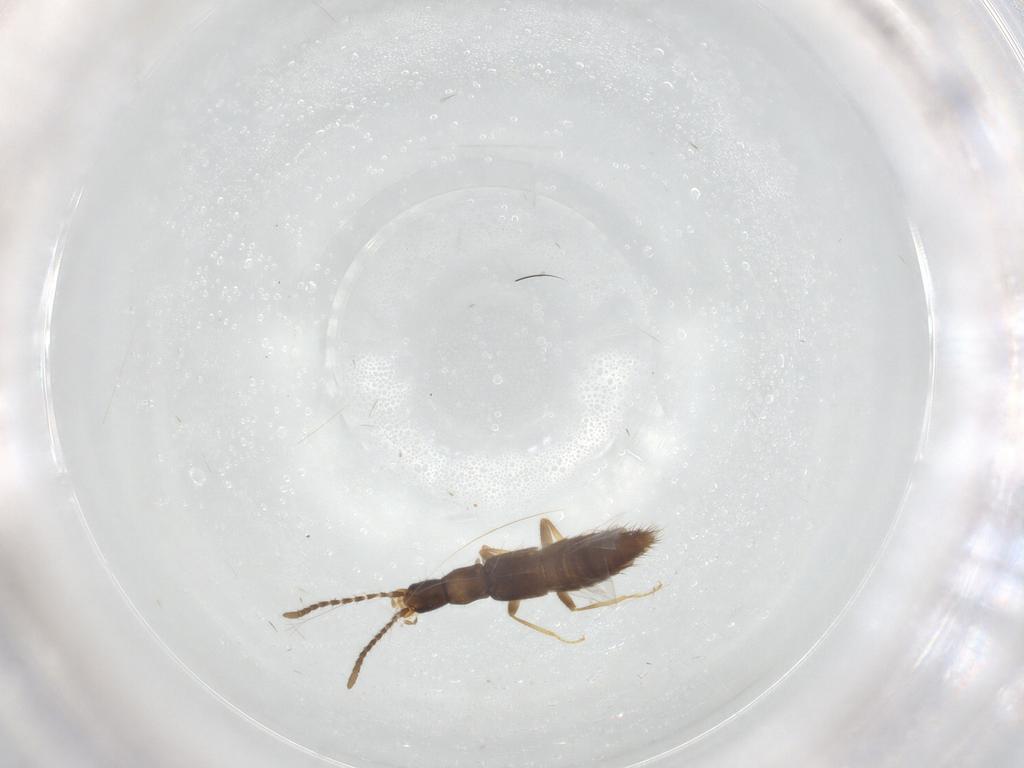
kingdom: Animalia
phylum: Arthropoda
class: Insecta
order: Coleoptera
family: Staphylinidae
